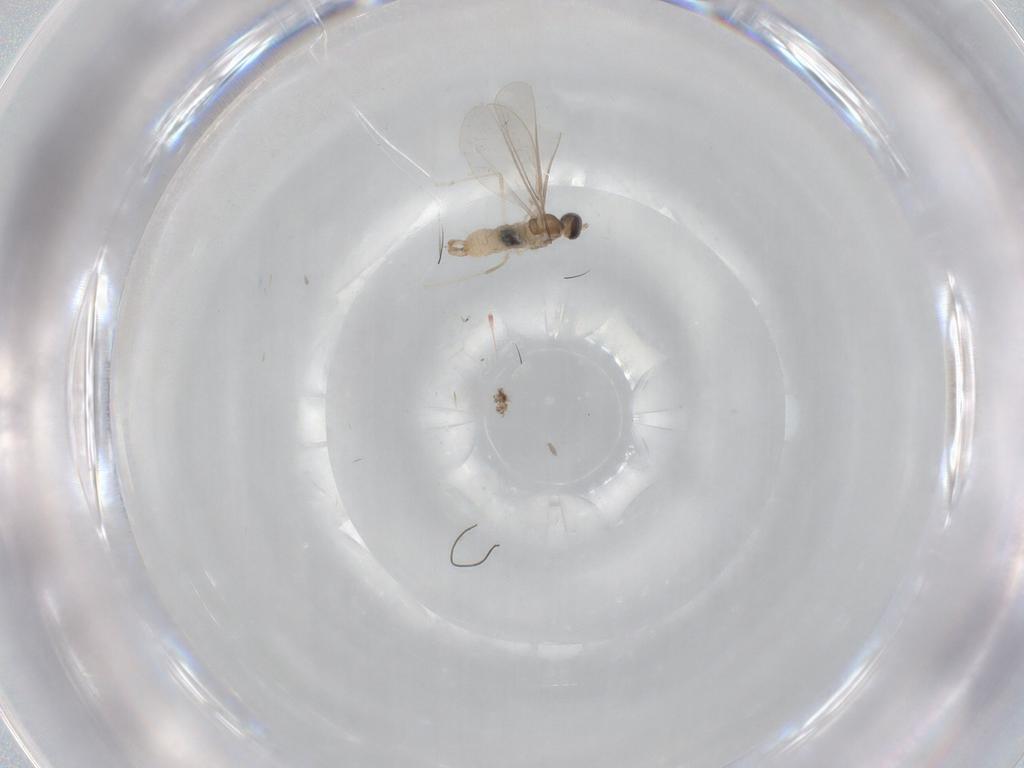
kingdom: Animalia
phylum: Arthropoda
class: Insecta
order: Diptera
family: Cecidomyiidae
